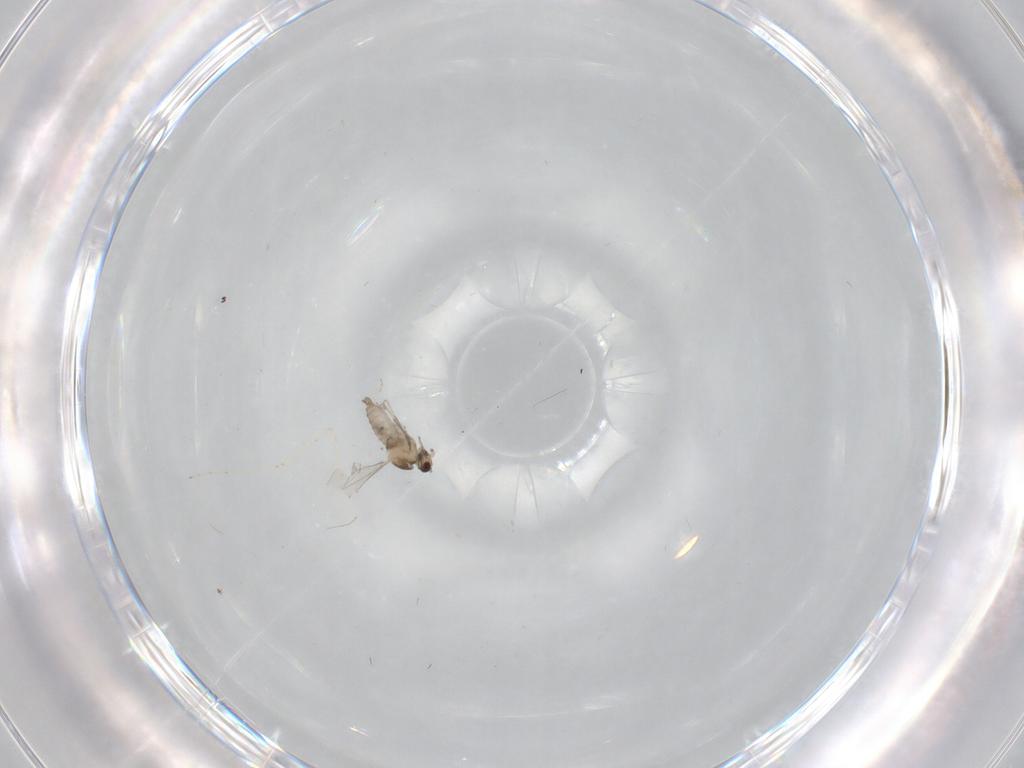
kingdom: Animalia
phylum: Arthropoda
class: Insecta
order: Diptera
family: Cecidomyiidae
